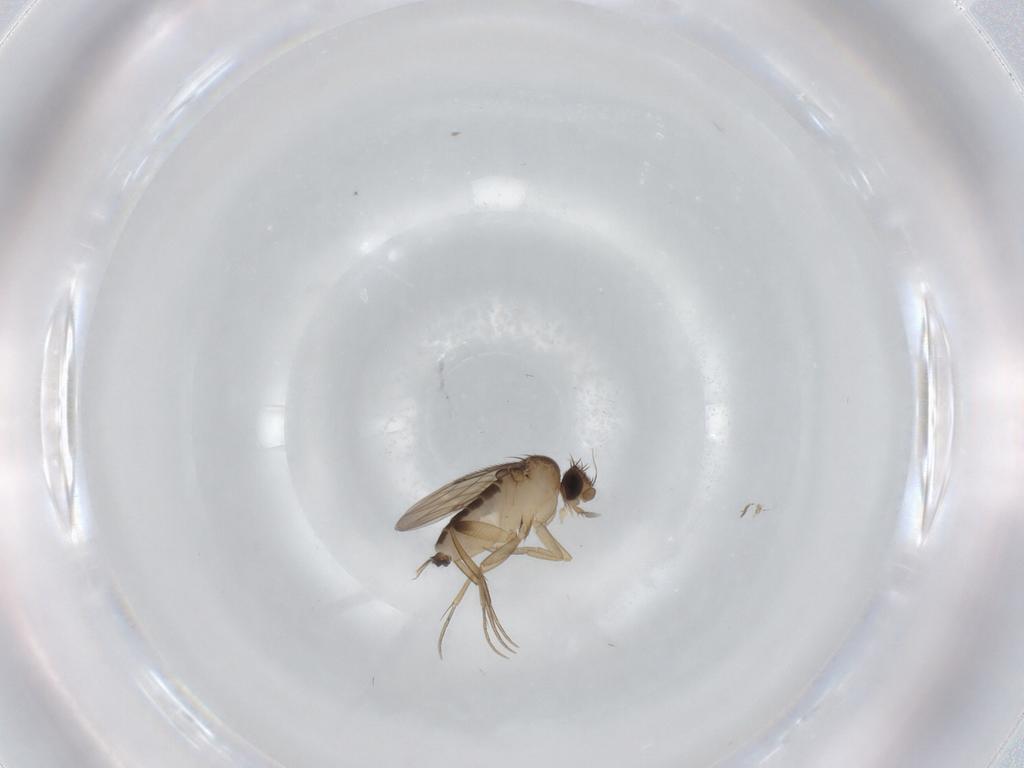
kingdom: Animalia
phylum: Arthropoda
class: Insecta
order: Diptera
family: Phoridae
